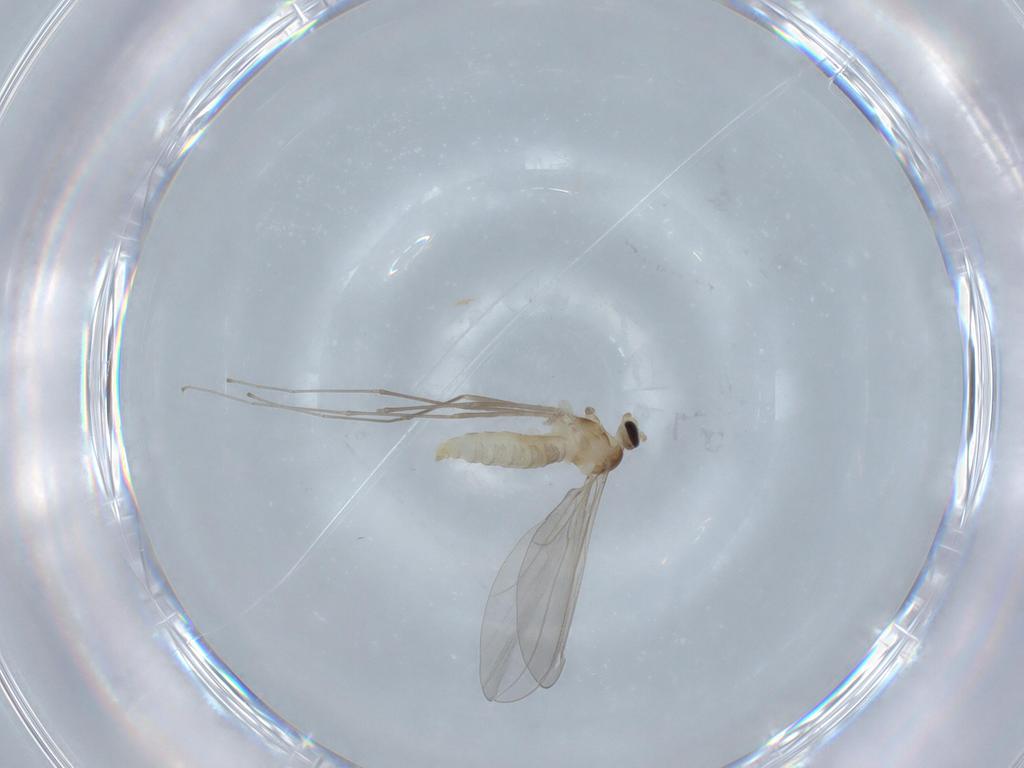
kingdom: Animalia
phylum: Arthropoda
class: Insecta
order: Diptera
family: Cecidomyiidae
